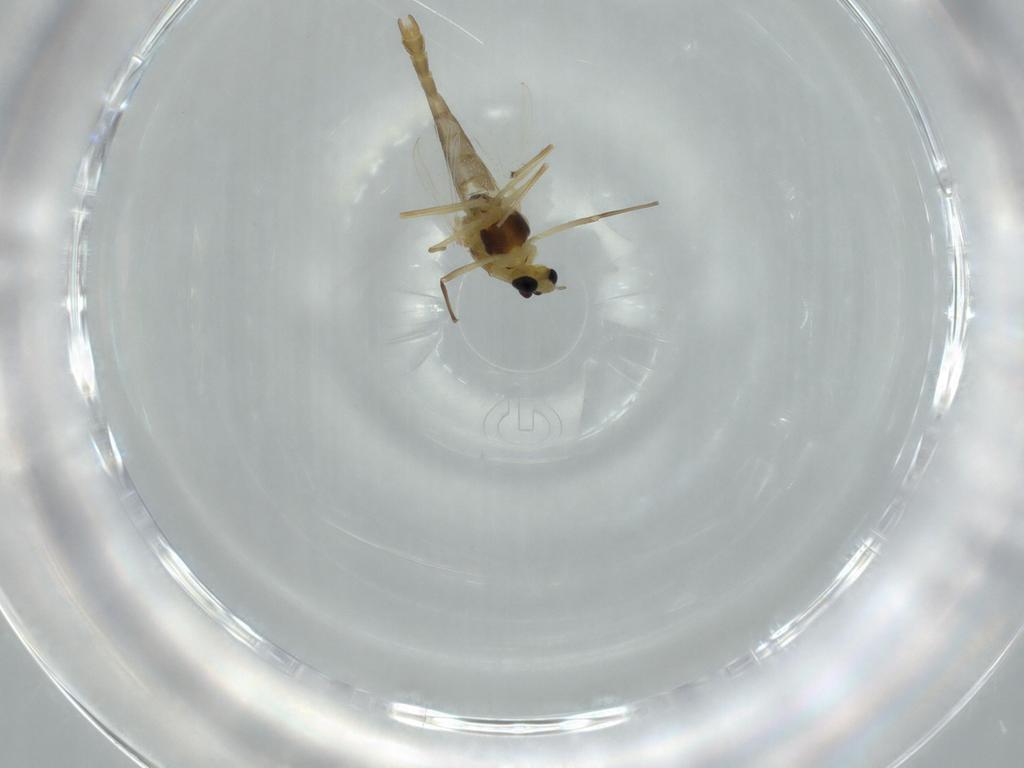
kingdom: Animalia
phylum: Arthropoda
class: Insecta
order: Diptera
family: Chironomidae
